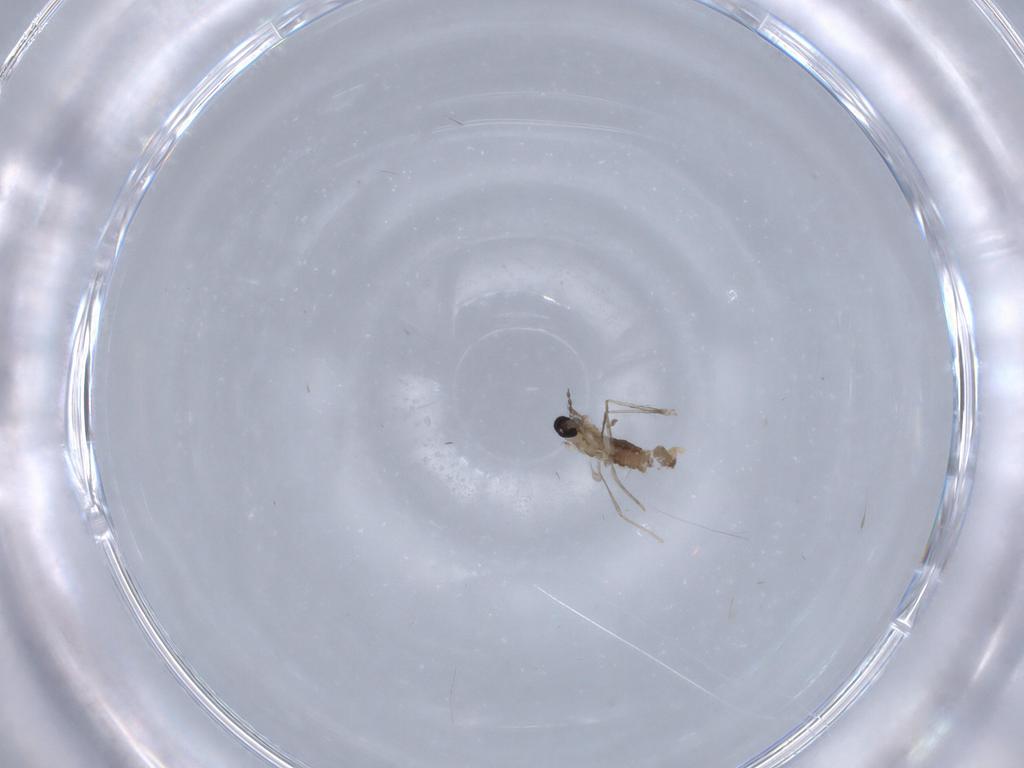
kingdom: Animalia
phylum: Arthropoda
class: Insecta
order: Diptera
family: Cecidomyiidae
